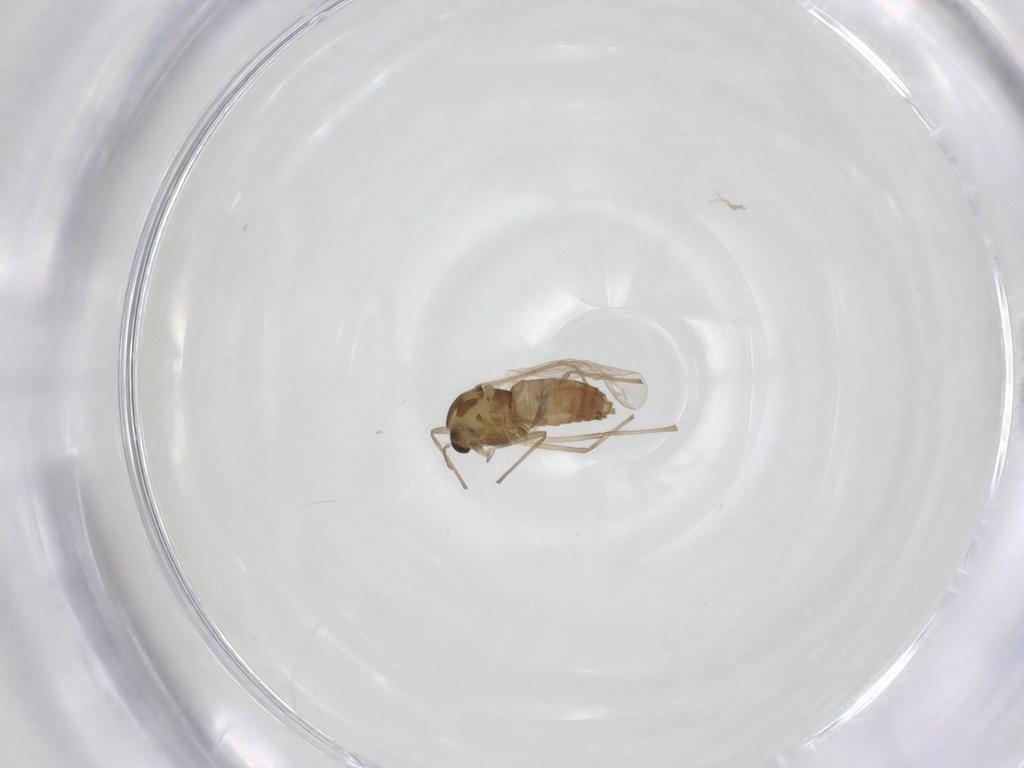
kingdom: Animalia
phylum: Arthropoda
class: Insecta
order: Diptera
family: Chironomidae
